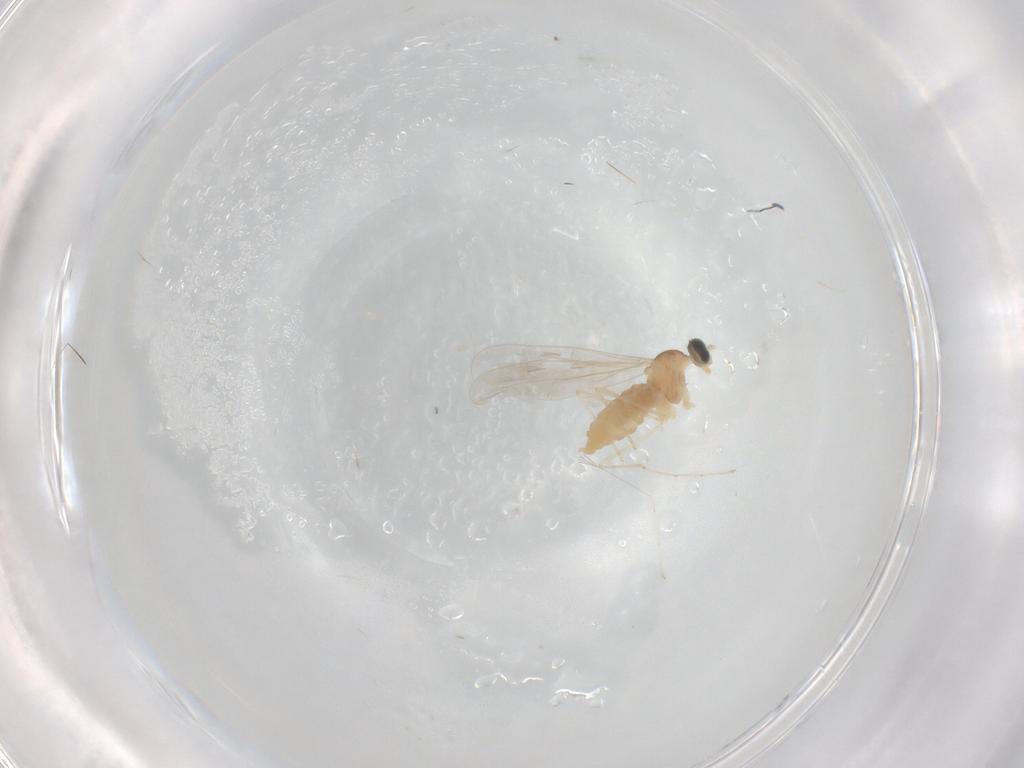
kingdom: Animalia
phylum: Arthropoda
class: Insecta
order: Diptera
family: Cecidomyiidae
